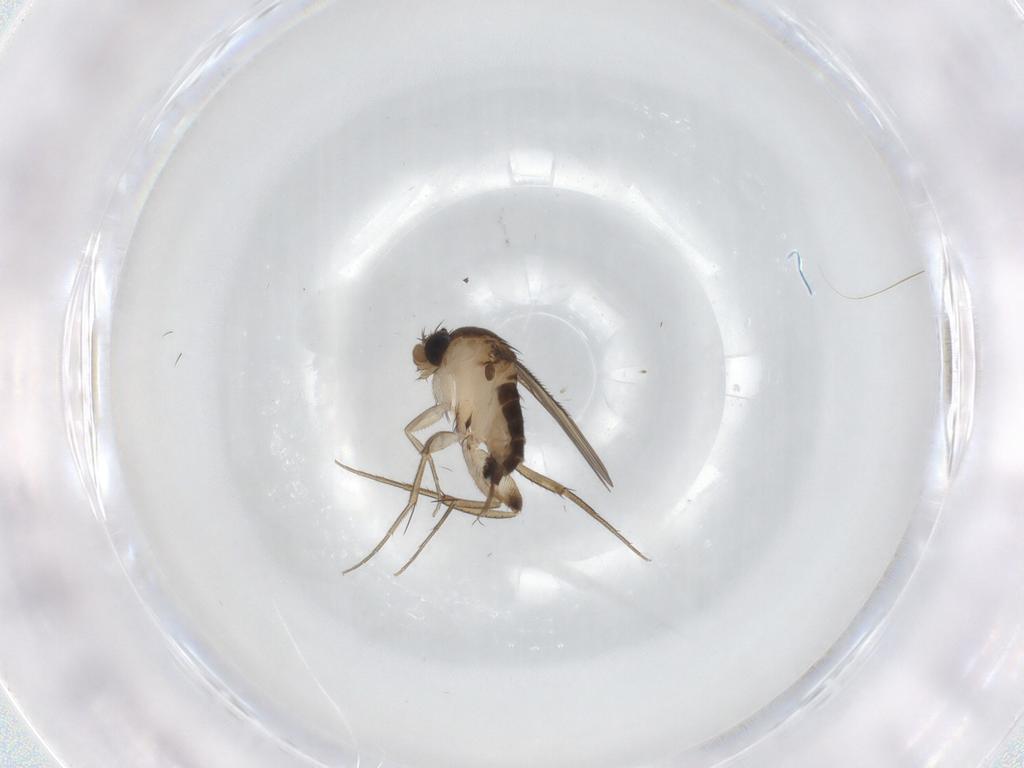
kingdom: Animalia
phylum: Arthropoda
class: Insecta
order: Diptera
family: Phoridae
